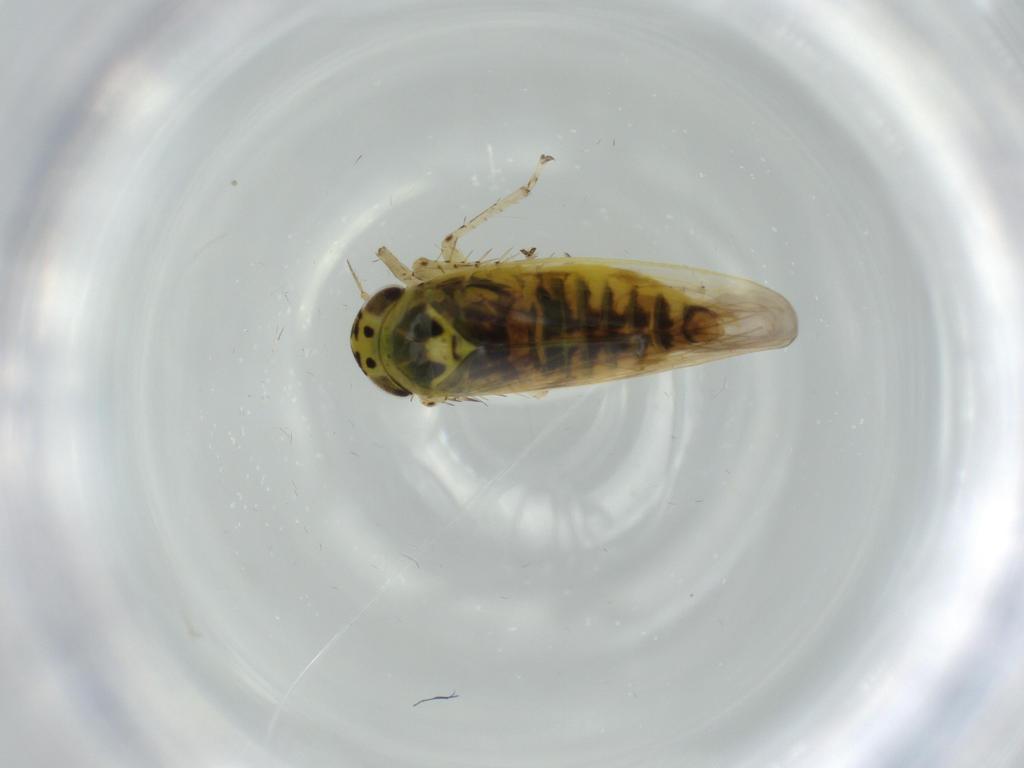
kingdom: Animalia
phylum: Arthropoda
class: Insecta
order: Hemiptera
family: Cicadellidae
